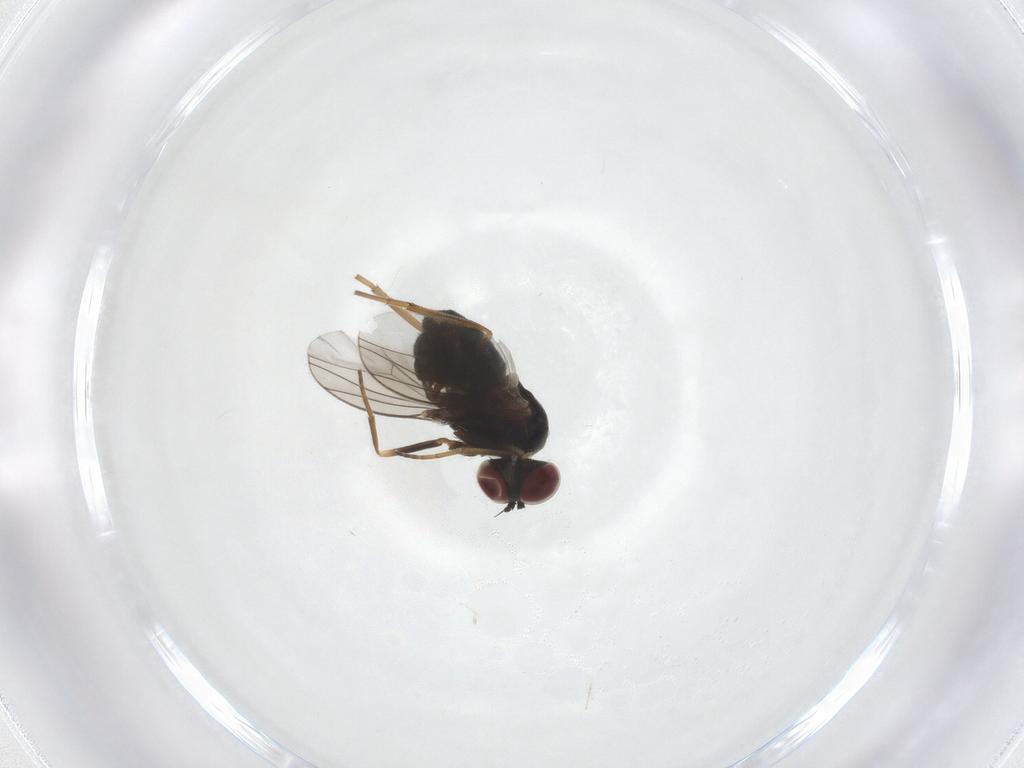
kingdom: Animalia
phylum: Arthropoda
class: Insecta
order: Diptera
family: Dolichopodidae
